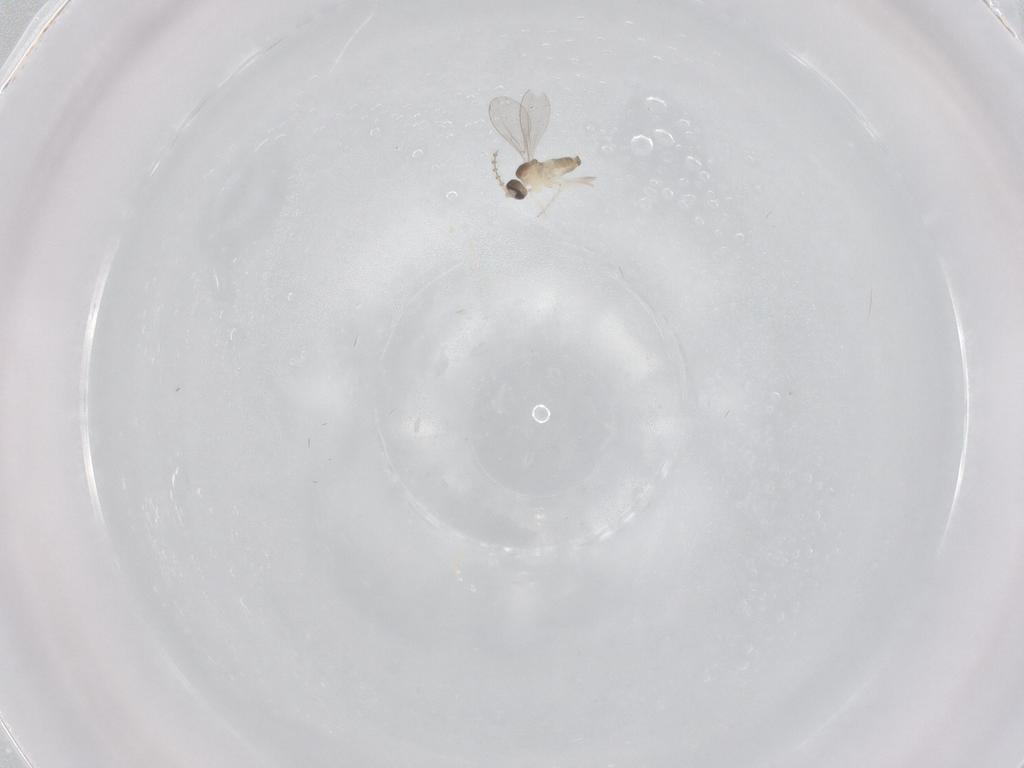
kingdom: Animalia
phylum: Arthropoda
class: Insecta
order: Diptera
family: Cecidomyiidae
